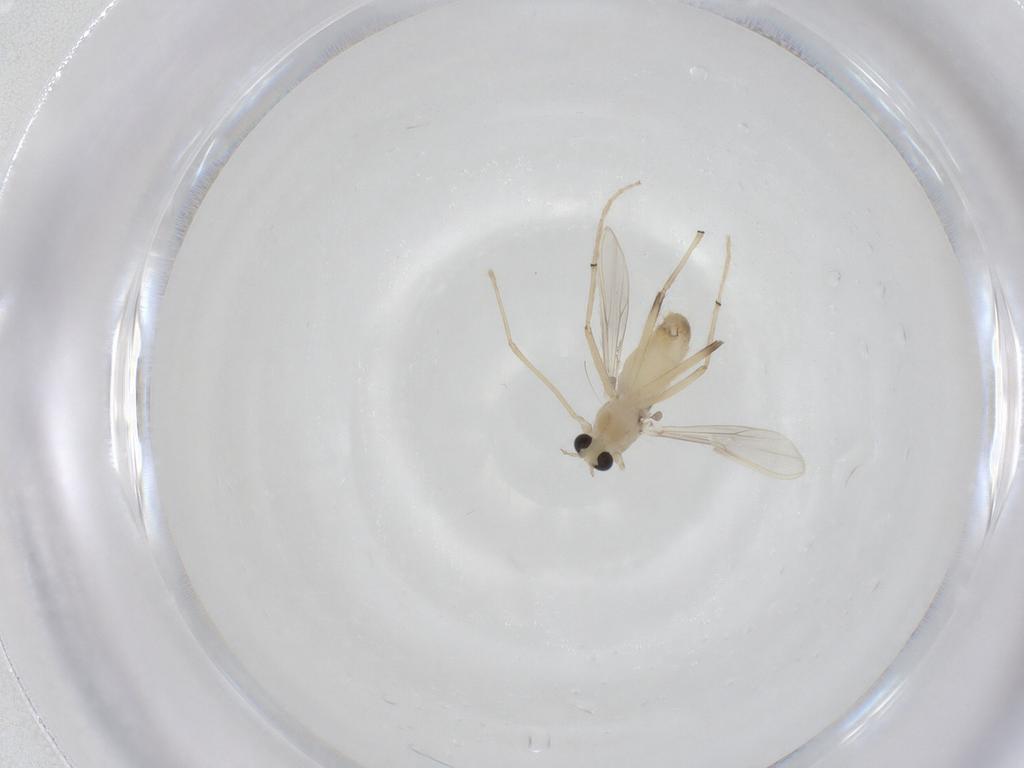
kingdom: Animalia
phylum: Arthropoda
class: Insecta
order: Diptera
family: Chironomidae
